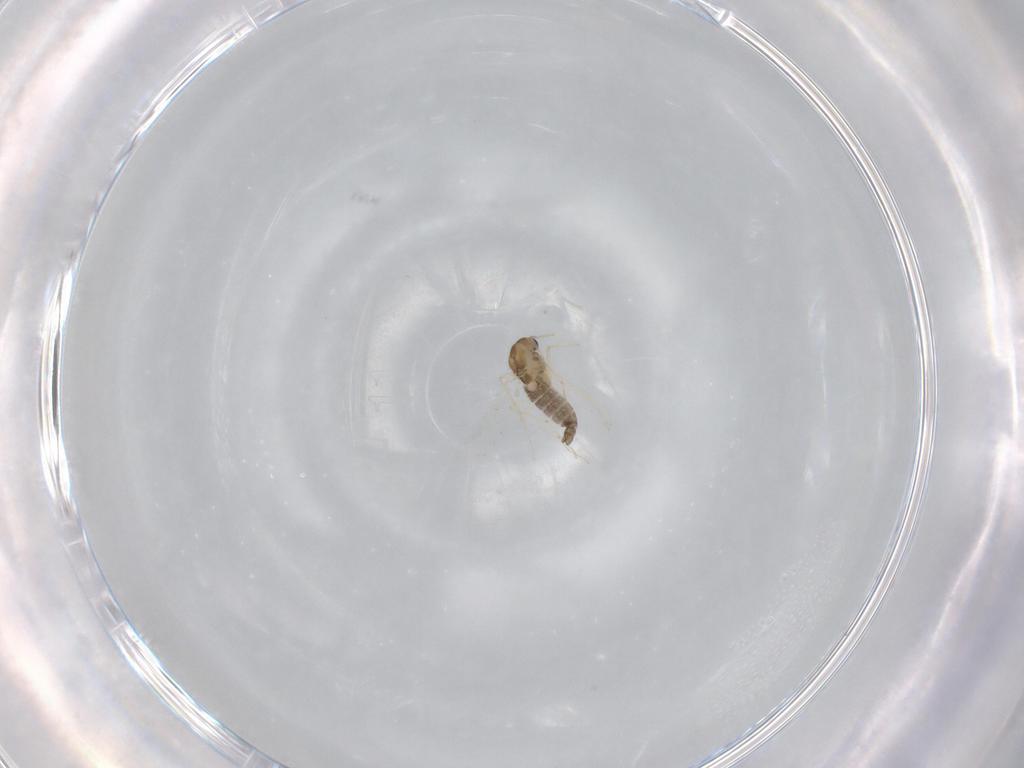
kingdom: Animalia
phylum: Arthropoda
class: Insecta
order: Diptera
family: Chironomidae
